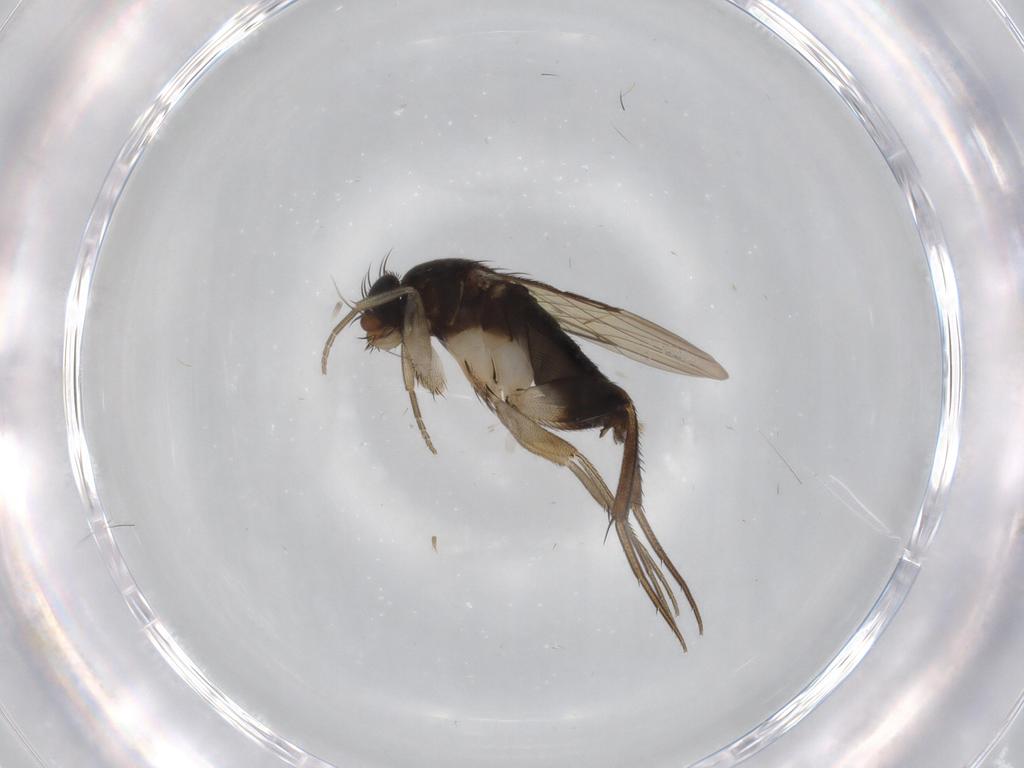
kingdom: Animalia
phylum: Arthropoda
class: Insecta
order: Diptera
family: Phoridae
